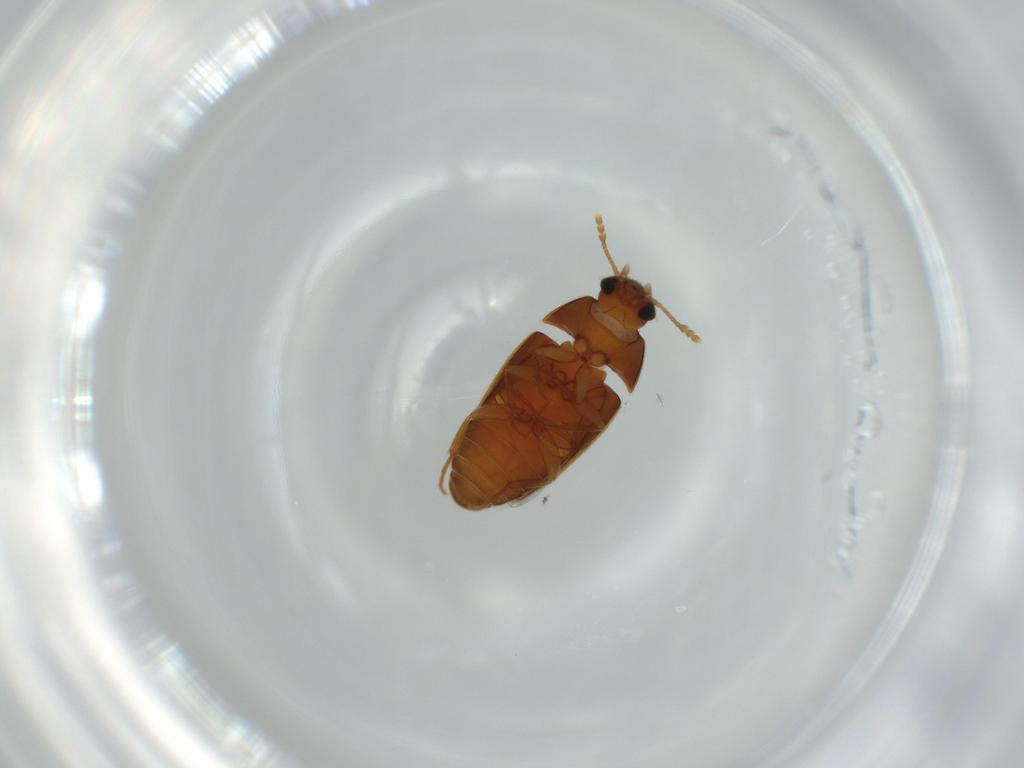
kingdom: Animalia
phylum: Arthropoda
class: Insecta
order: Coleoptera
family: Mycetophagidae
